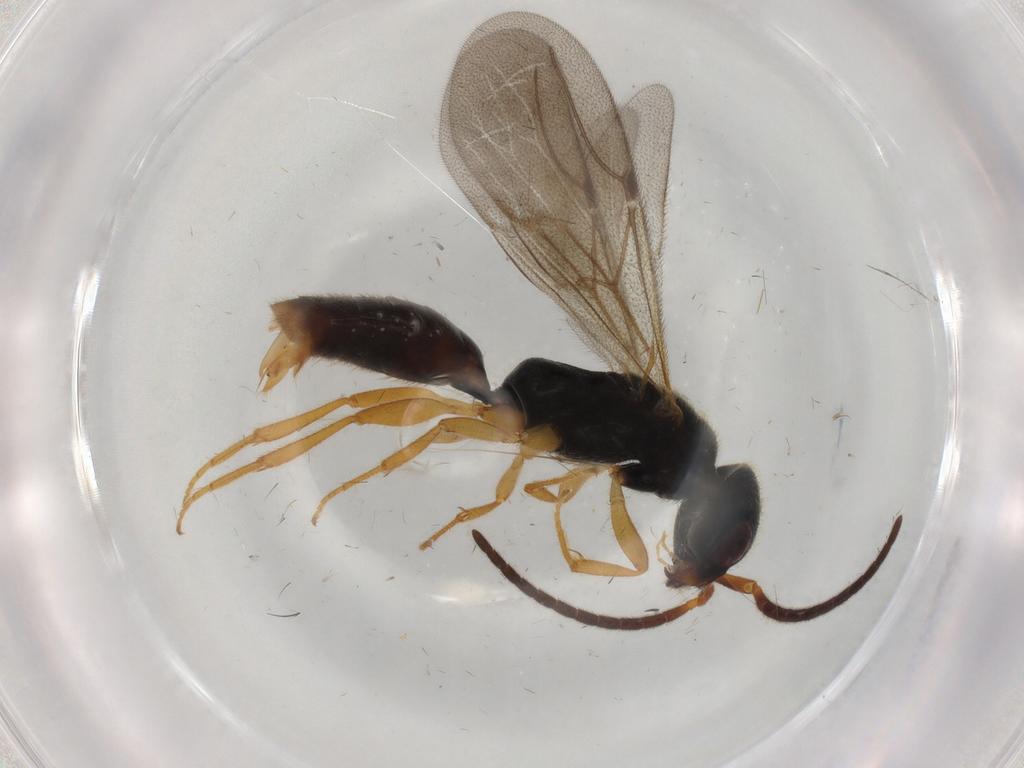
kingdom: Animalia
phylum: Arthropoda
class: Insecta
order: Hymenoptera
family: Bethylidae
